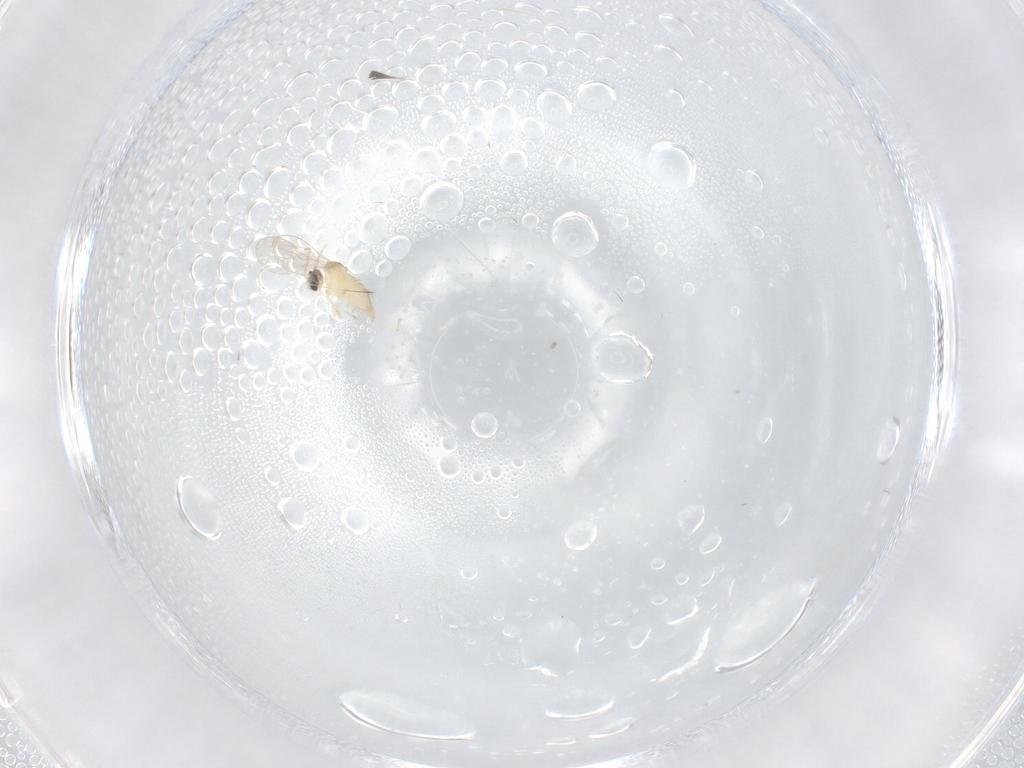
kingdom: Animalia
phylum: Arthropoda
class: Insecta
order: Diptera
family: Cecidomyiidae
